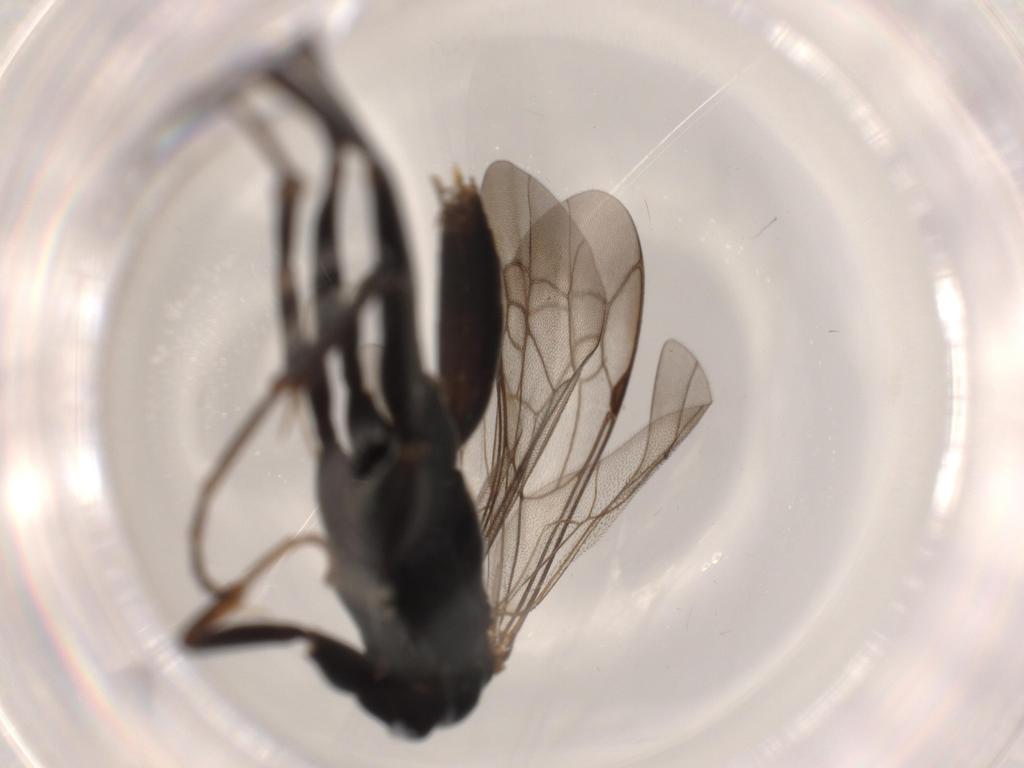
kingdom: Animalia
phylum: Arthropoda
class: Insecta
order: Hymenoptera
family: Pompilidae
